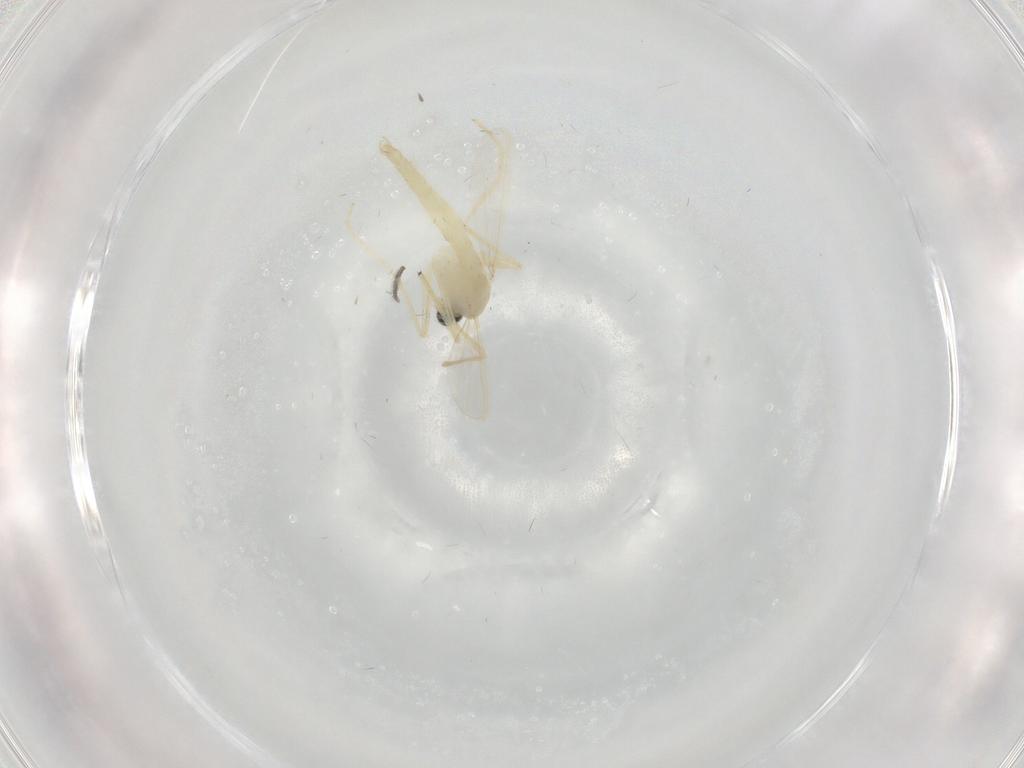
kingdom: Animalia
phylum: Arthropoda
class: Insecta
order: Diptera
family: Chironomidae
